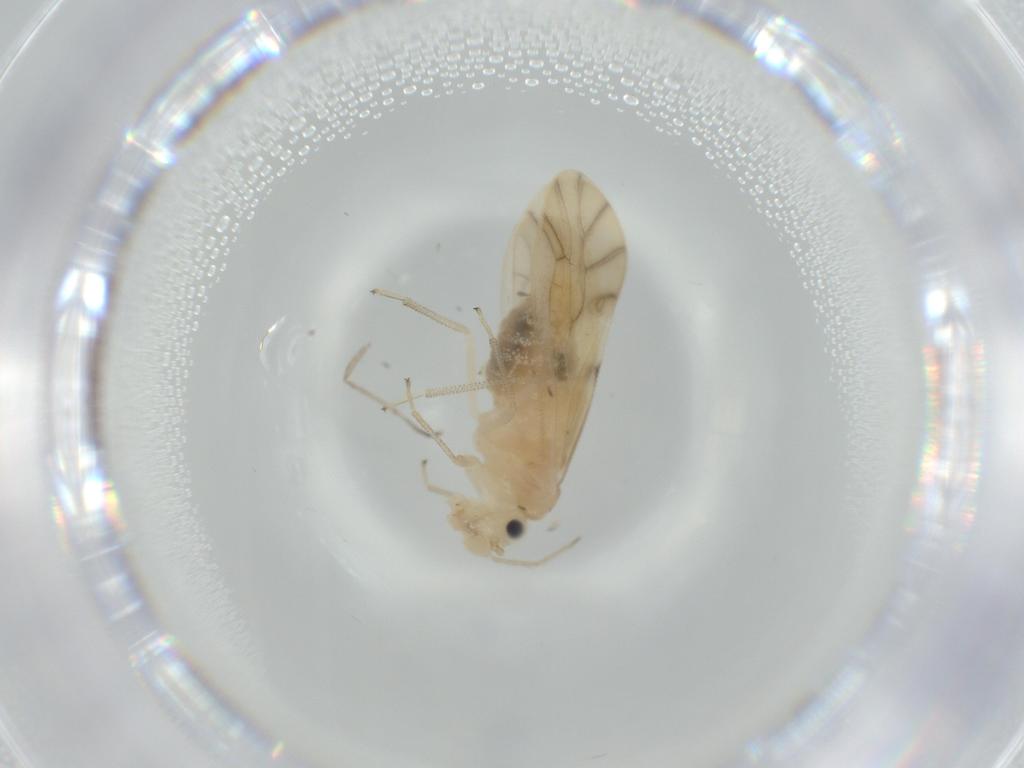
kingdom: Animalia
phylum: Arthropoda
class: Insecta
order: Psocodea
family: Caeciliusidae
